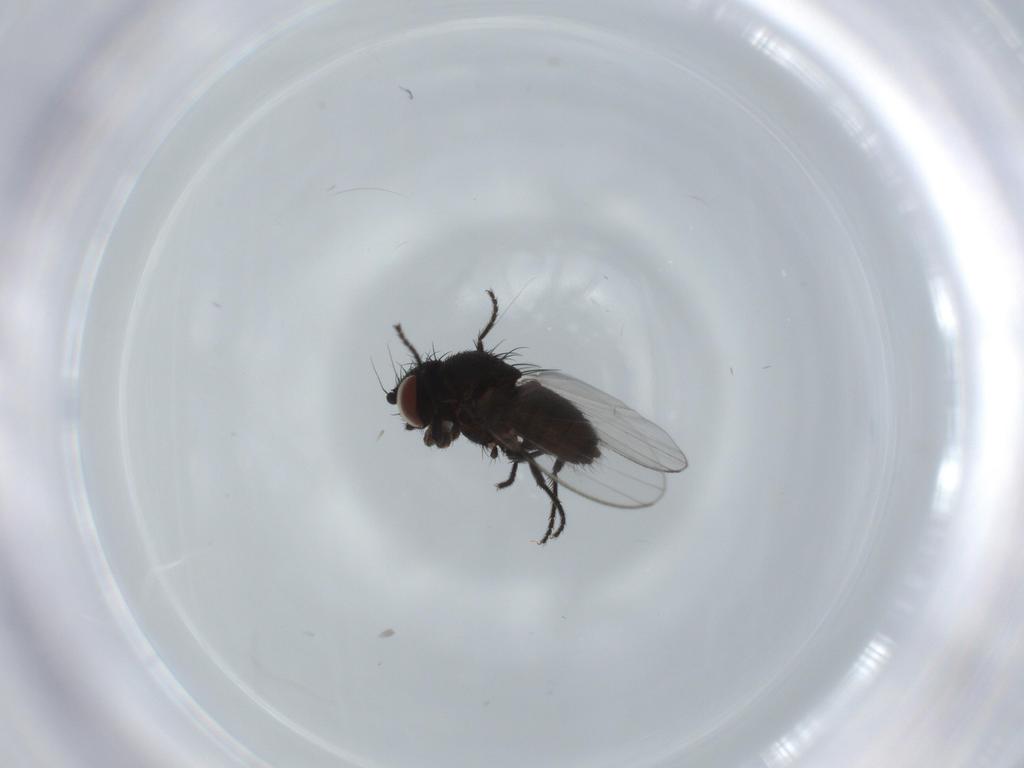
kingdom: Animalia
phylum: Arthropoda
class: Insecta
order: Diptera
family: Milichiidae
